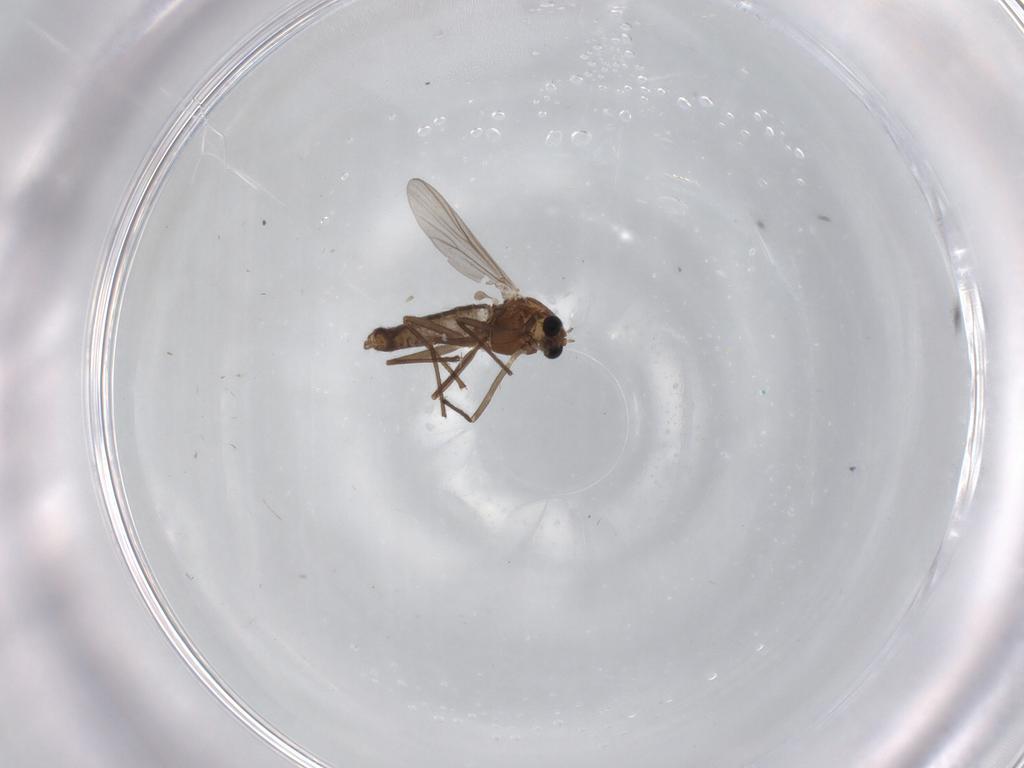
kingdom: Animalia
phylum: Arthropoda
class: Insecta
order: Diptera
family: Chironomidae
